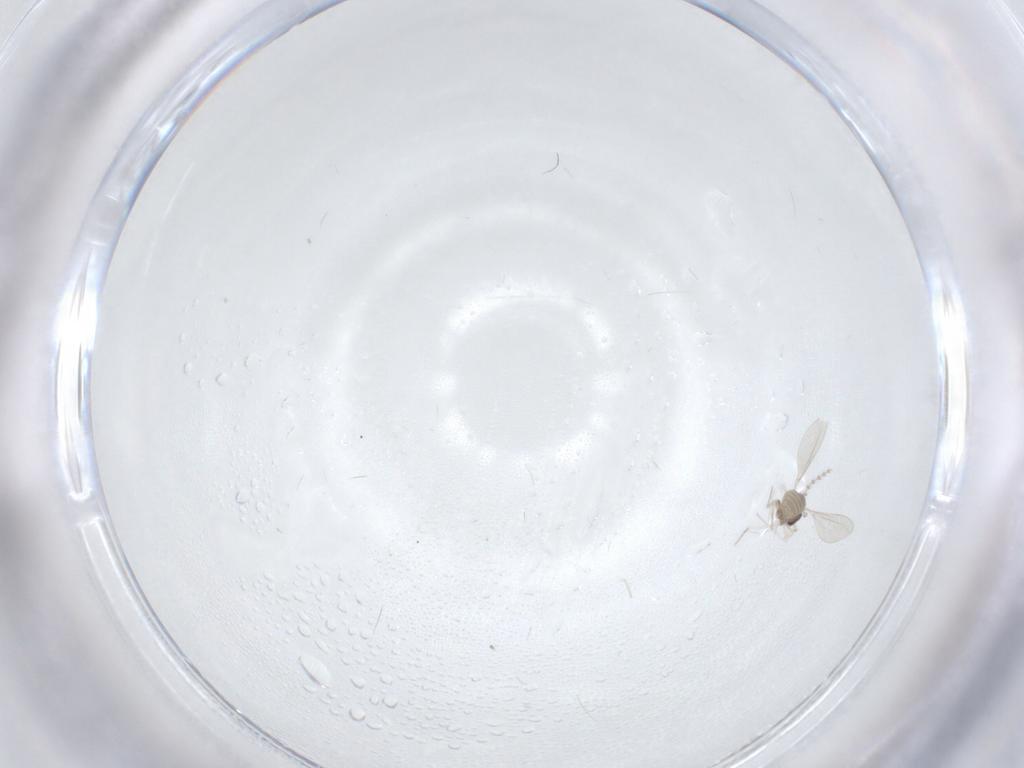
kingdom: Animalia
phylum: Arthropoda
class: Insecta
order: Diptera
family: Cecidomyiidae
